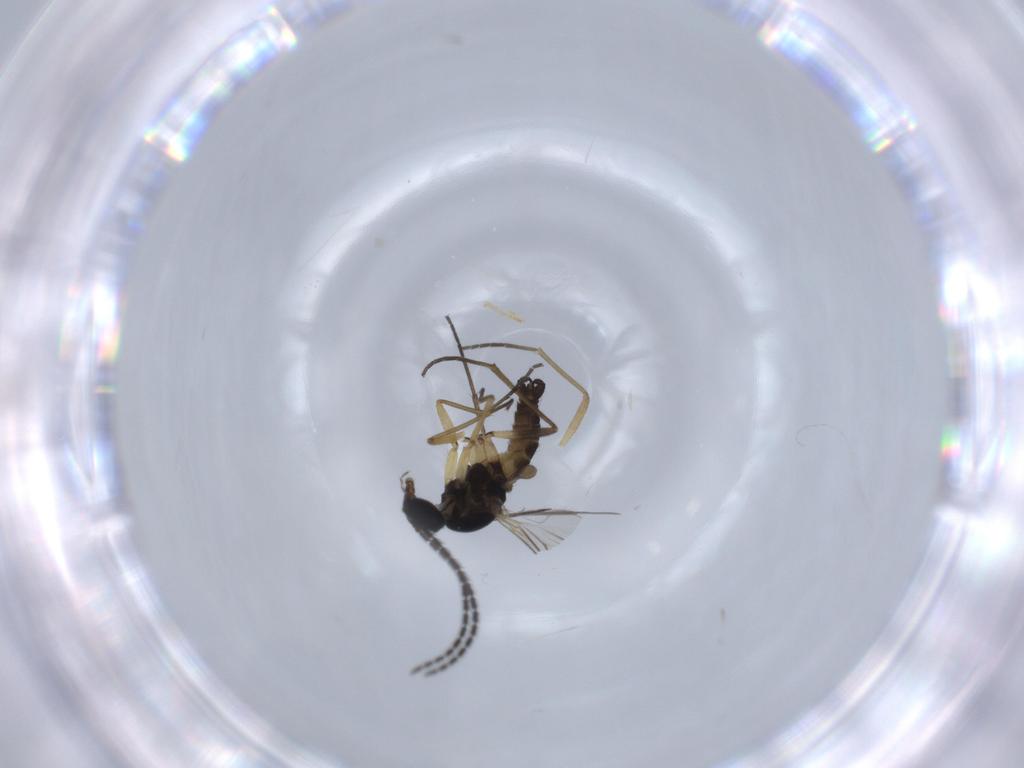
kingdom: Animalia
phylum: Arthropoda
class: Insecta
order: Diptera
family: Sciaridae
